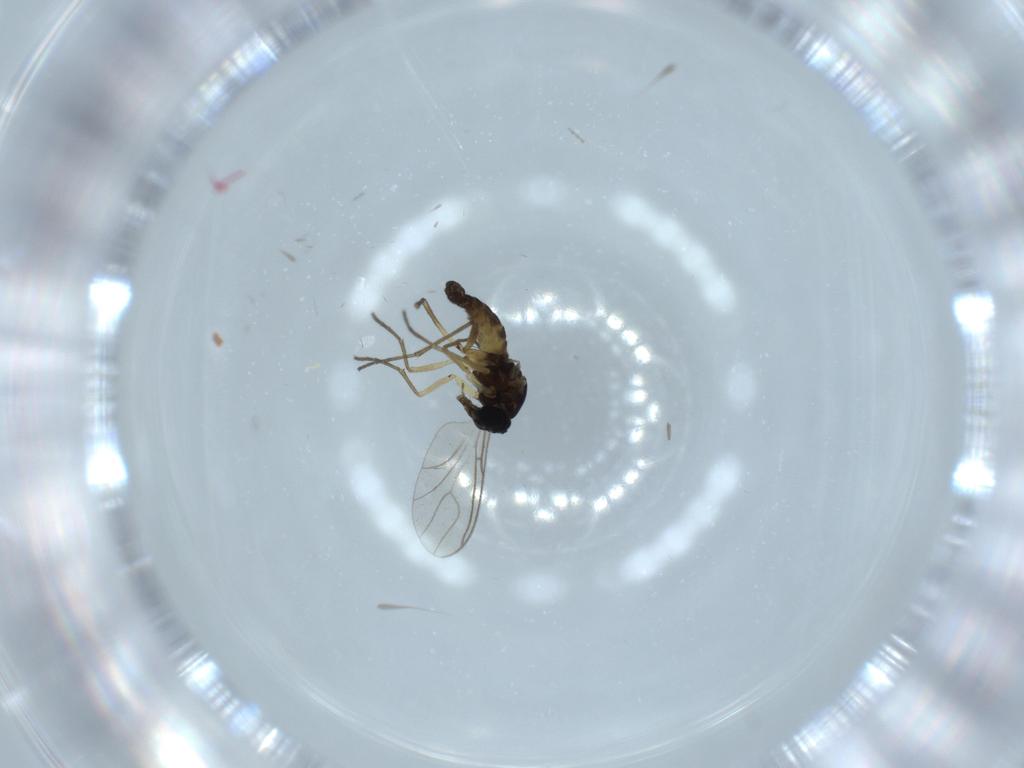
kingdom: Animalia
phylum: Arthropoda
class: Insecta
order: Diptera
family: Sciaridae
